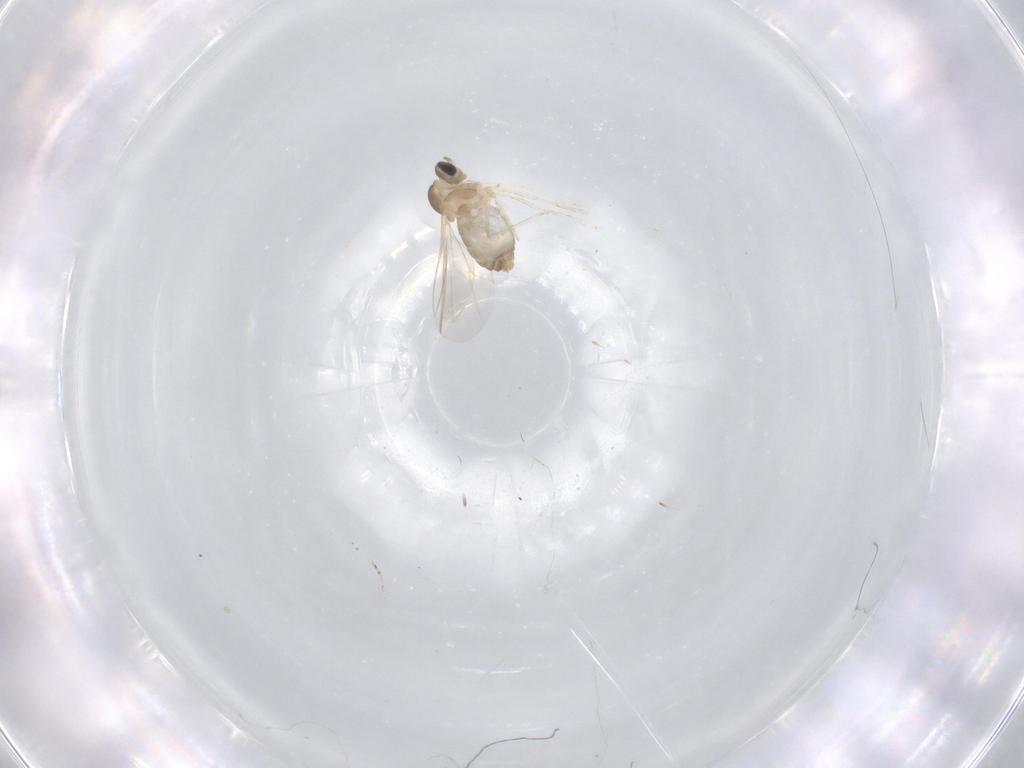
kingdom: Animalia
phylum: Arthropoda
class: Insecta
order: Diptera
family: Cecidomyiidae
